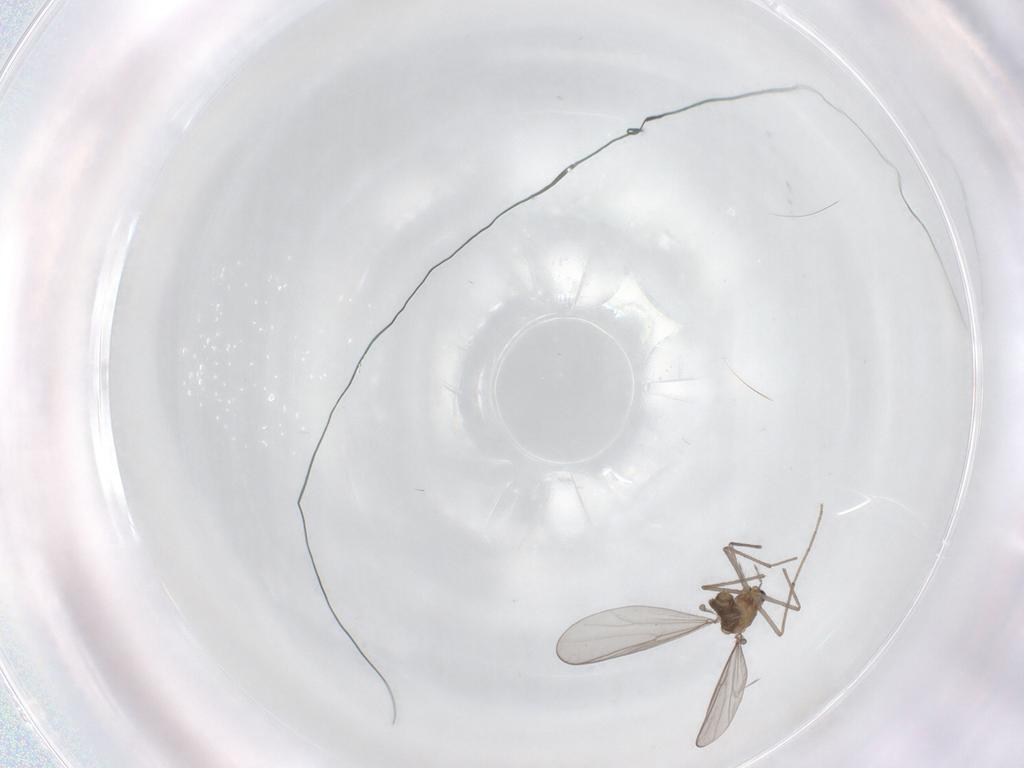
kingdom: Animalia
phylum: Arthropoda
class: Insecta
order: Diptera
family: Chironomidae
